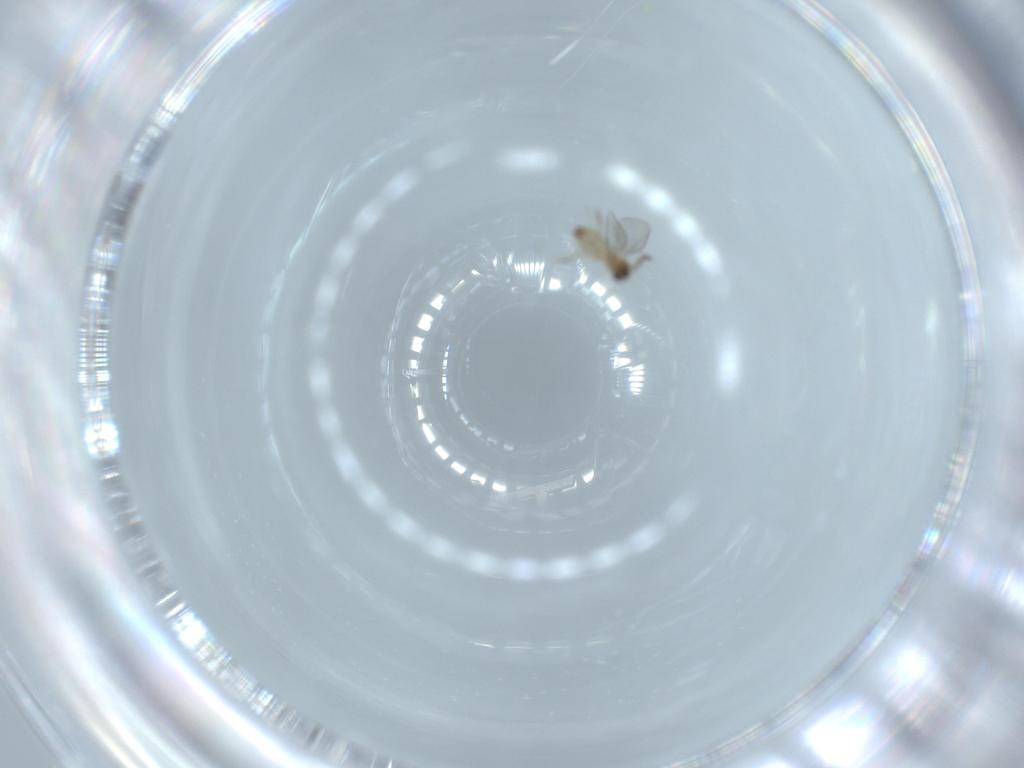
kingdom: Animalia
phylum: Arthropoda
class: Insecta
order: Diptera
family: Cecidomyiidae
